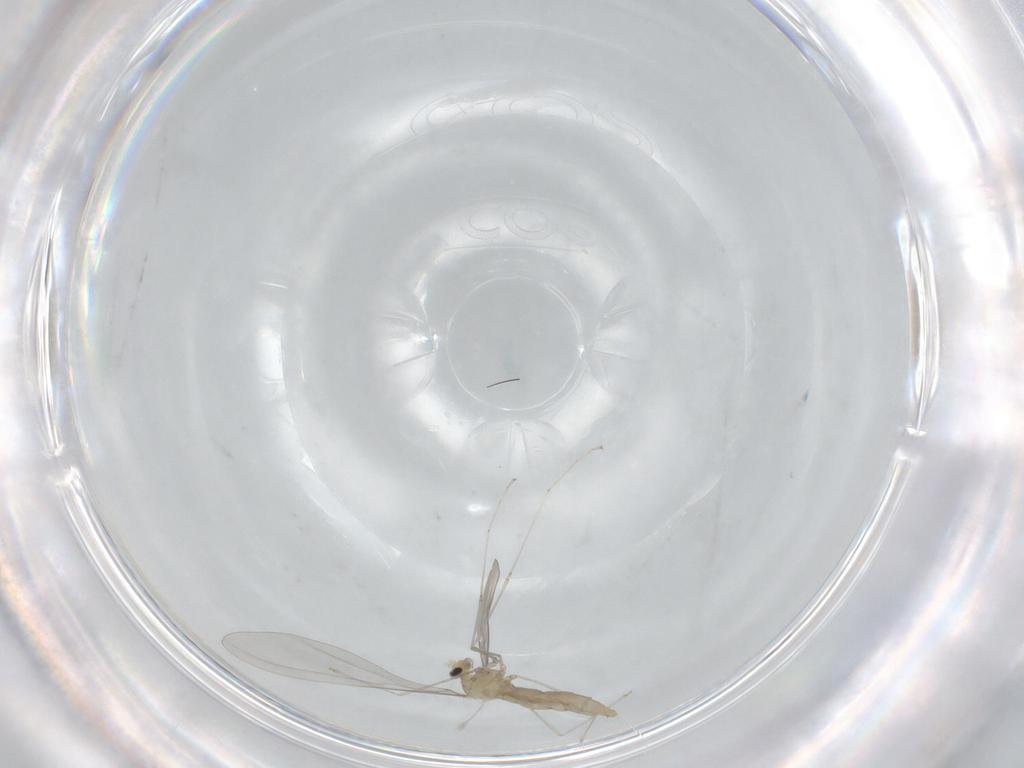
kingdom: Animalia
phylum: Arthropoda
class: Insecta
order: Diptera
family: Cecidomyiidae
